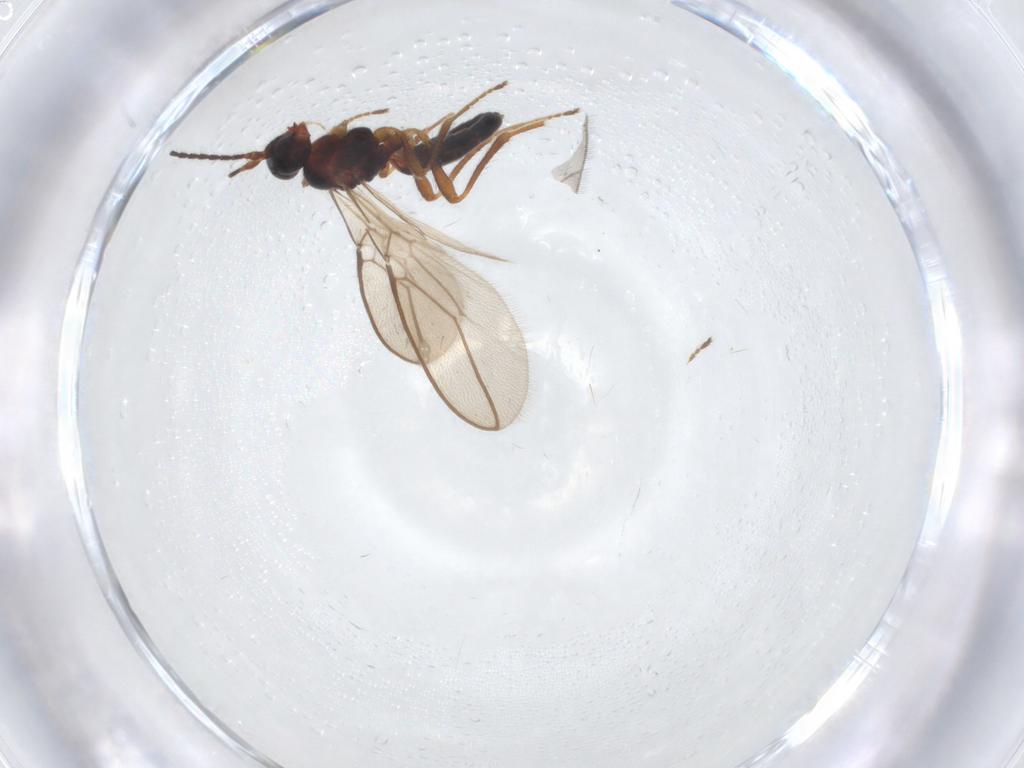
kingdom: Animalia
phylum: Arthropoda
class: Insecta
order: Hymenoptera
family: Braconidae
